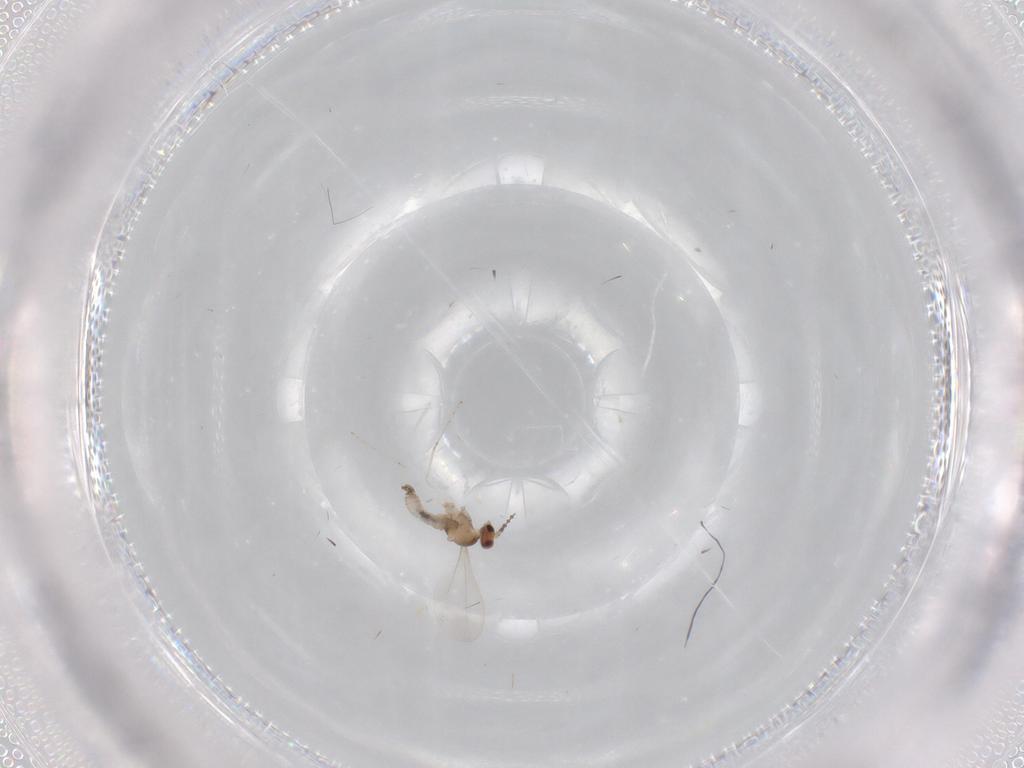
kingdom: Animalia
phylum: Arthropoda
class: Insecta
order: Diptera
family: Cecidomyiidae
